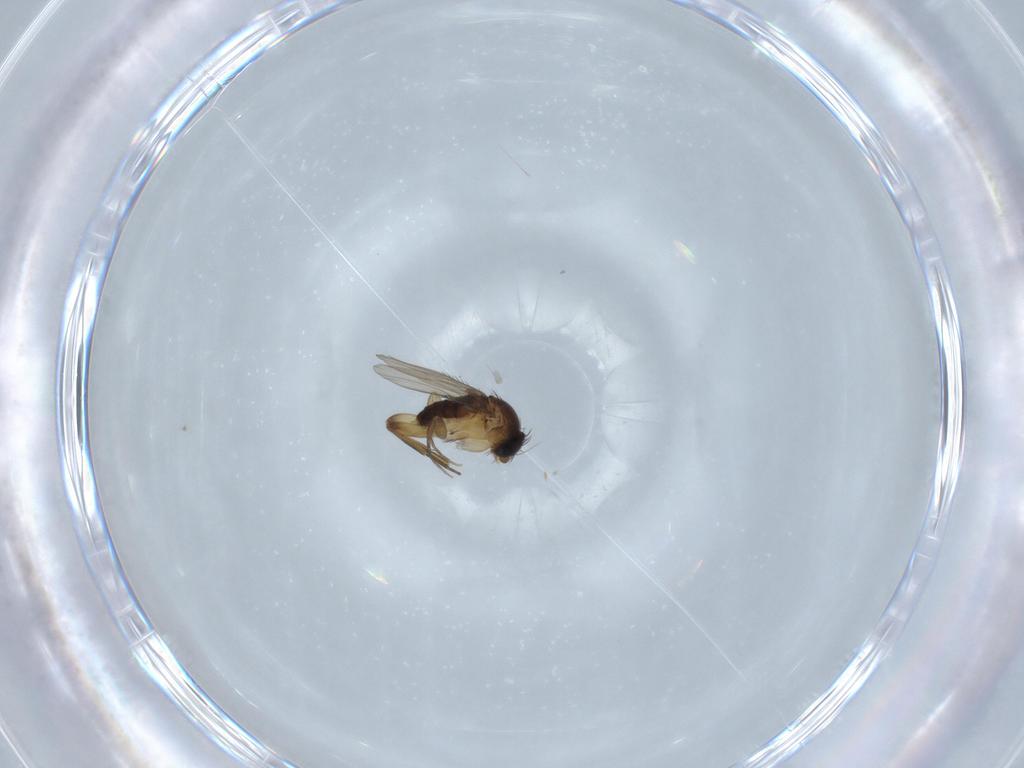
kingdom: Animalia
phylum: Arthropoda
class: Insecta
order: Diptera
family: Phoridae
